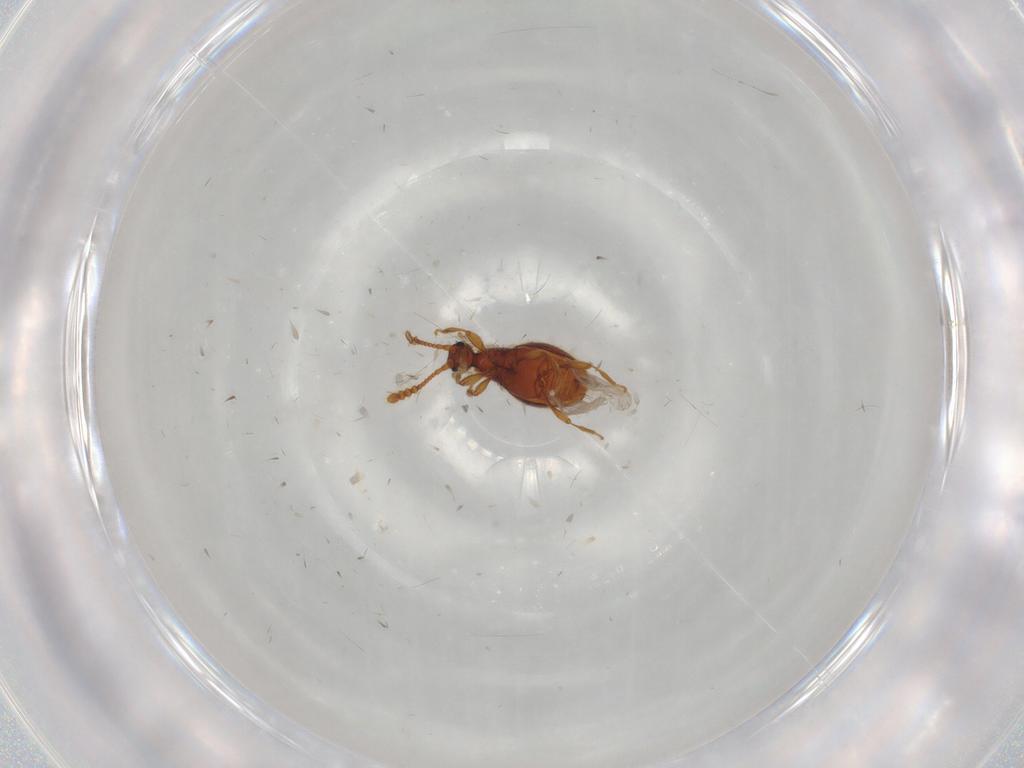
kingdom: Animalia
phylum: Arthropoda
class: Insecta
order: Coleoptera
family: Staphylinidae
